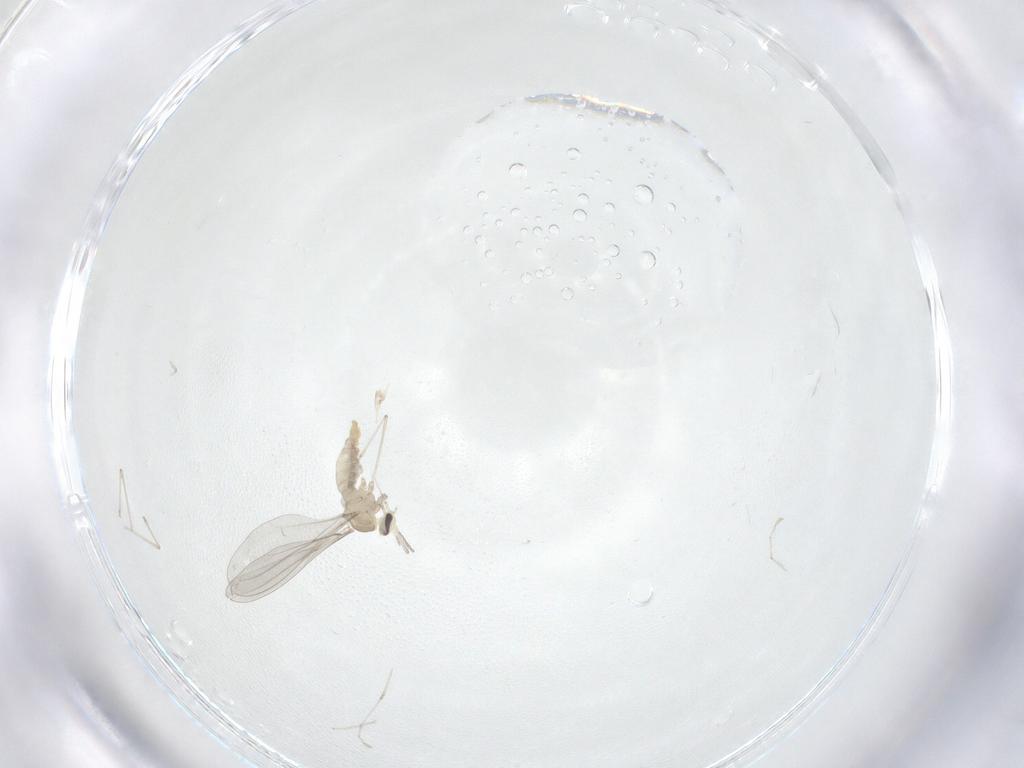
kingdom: Animalia
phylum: Arthropoda
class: Insecta
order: Diptera
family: Cecidomyiidae
